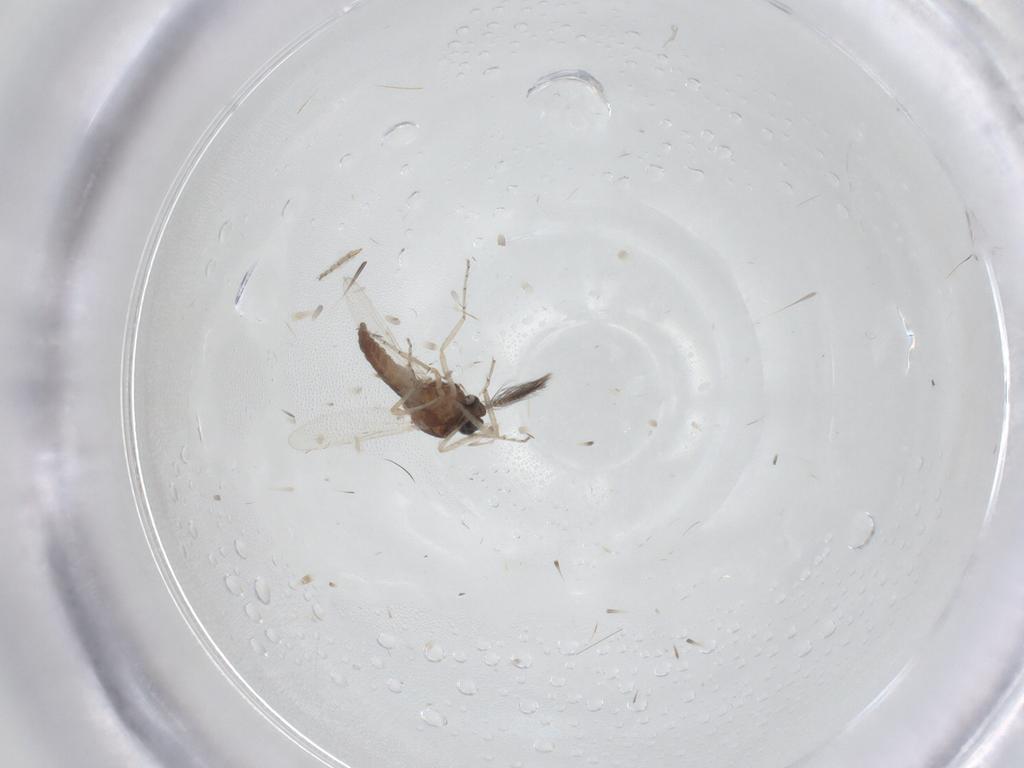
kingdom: Animalia
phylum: Arthropoda
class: Insecta
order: Diptera
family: Ceratopogonidae
